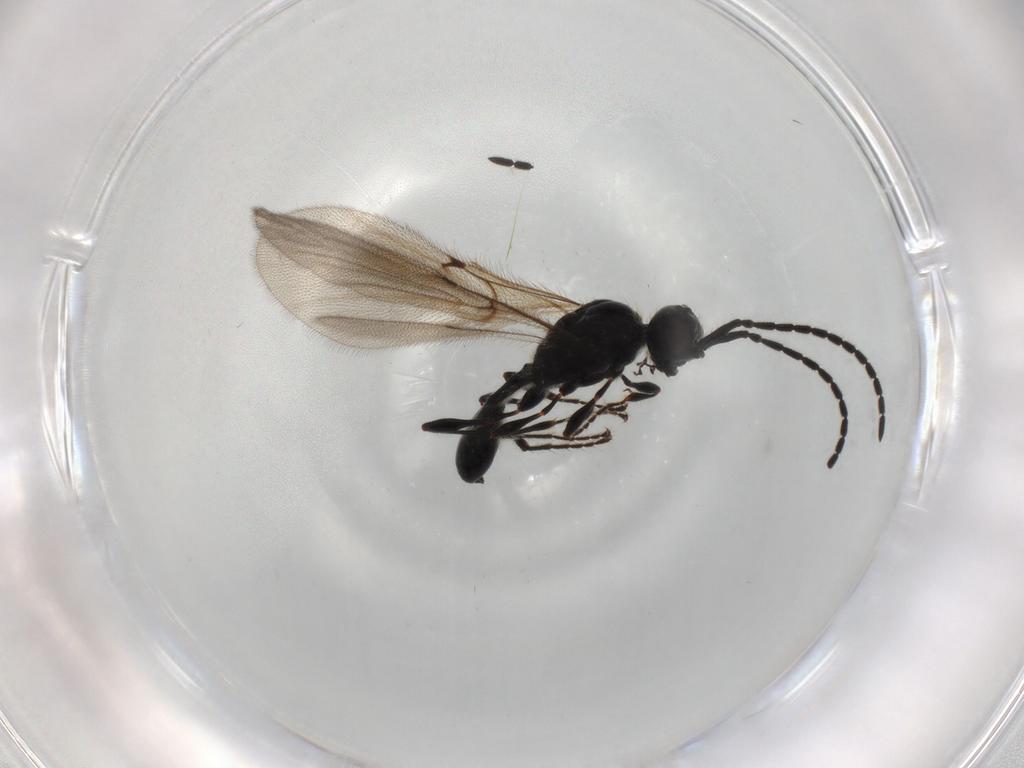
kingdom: Animalia
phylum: Arthropoda
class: Insecta
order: Hymenoptera
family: Diapriidae
